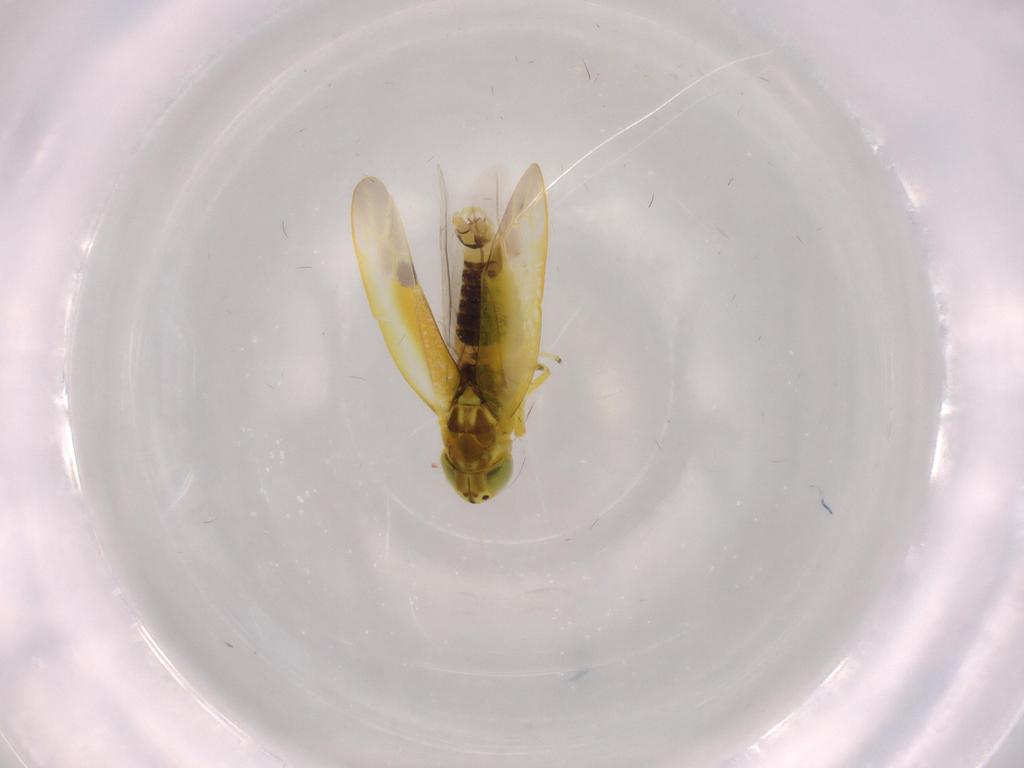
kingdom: Animalia
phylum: Arthropoda
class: Insecta
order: Hemiptera
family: Cicadellidae
